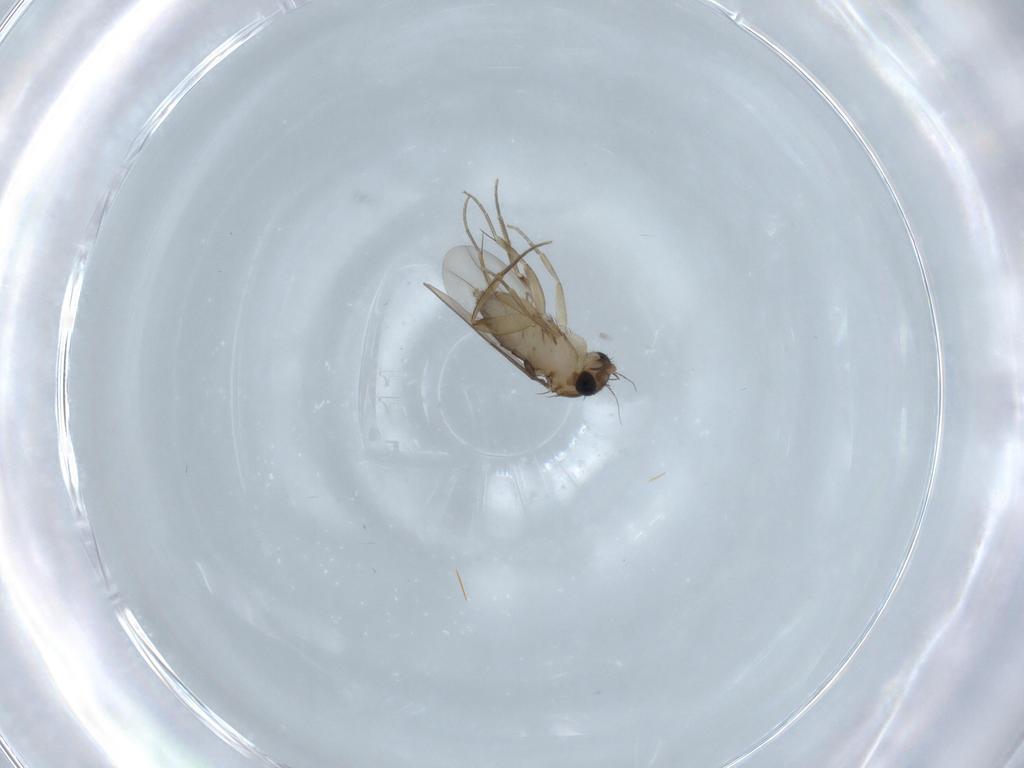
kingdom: Animalia
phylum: Arthropoda
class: Insecta
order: Diptera
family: Phoridae
